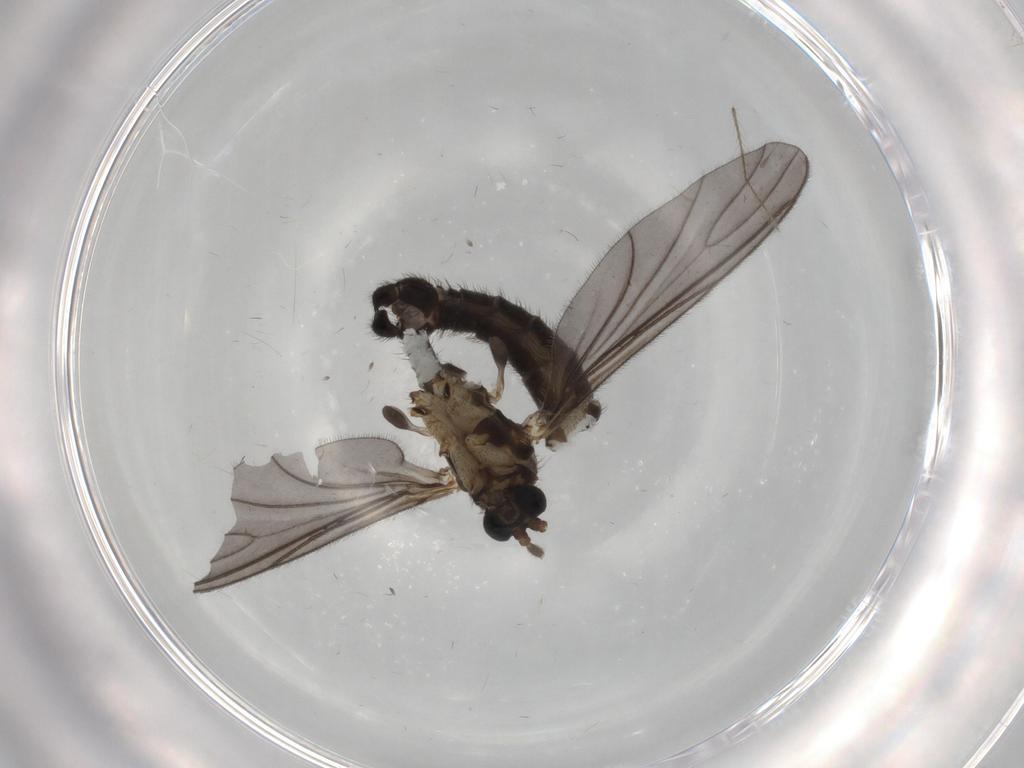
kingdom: Animalia
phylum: Arthropoda
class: Insecta
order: Diptera
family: Sciaridae
